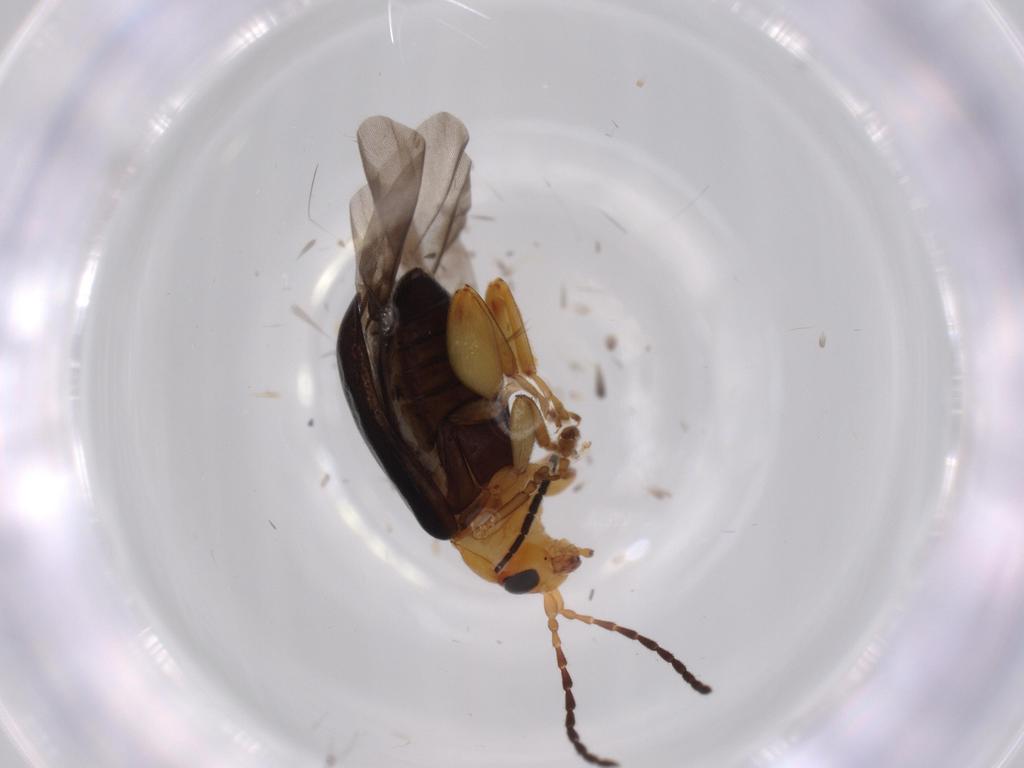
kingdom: Animalia
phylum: Arthropoda
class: Insecta
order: Coleoptera
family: Chrysomelidae
